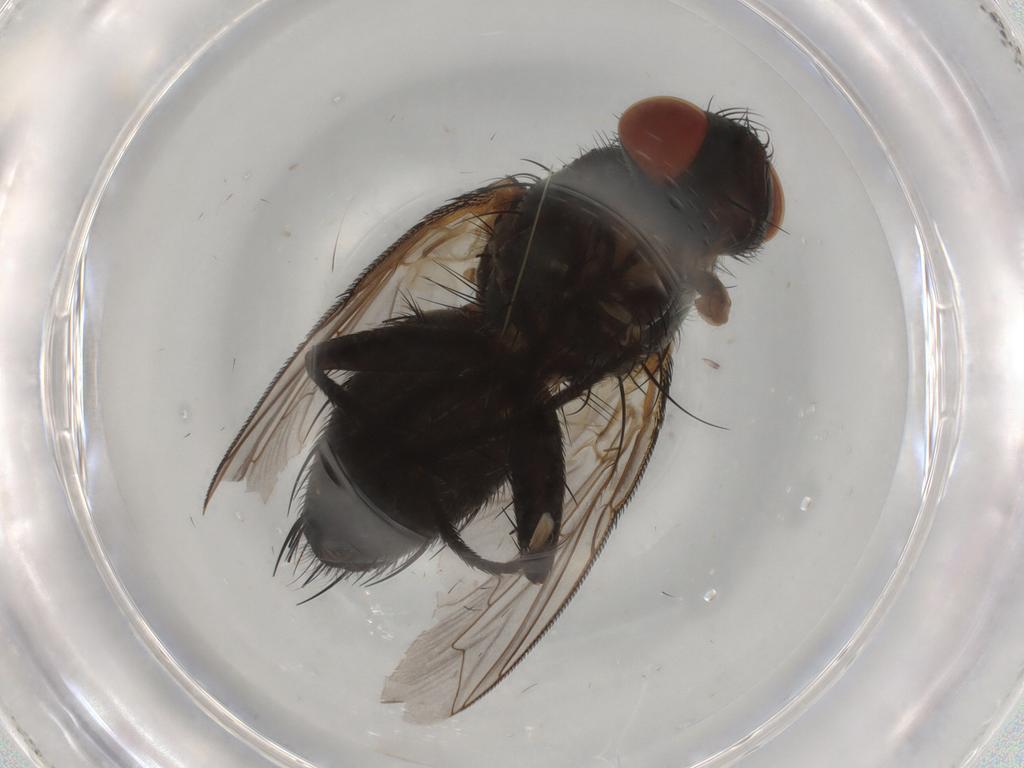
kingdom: Animalia
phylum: Arthropoda
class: Insecta
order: Diptera
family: Sarcophagidae
